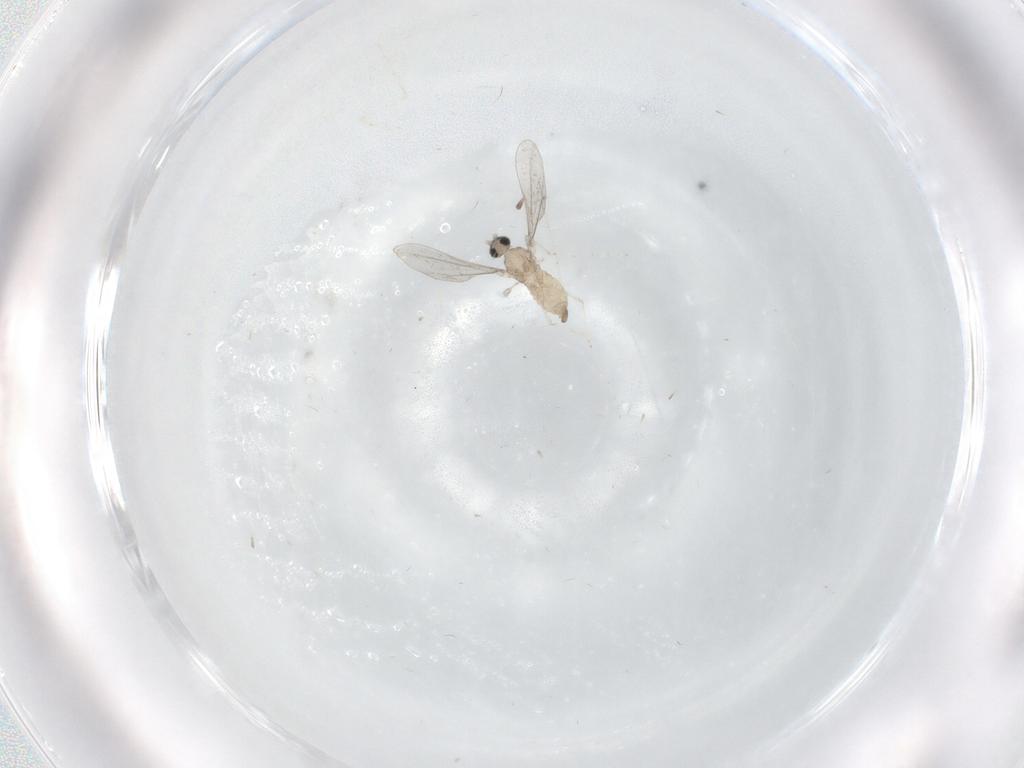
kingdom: Animalia
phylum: Arthropoda
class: Insecta
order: Diptera
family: Cecidomyiidae
